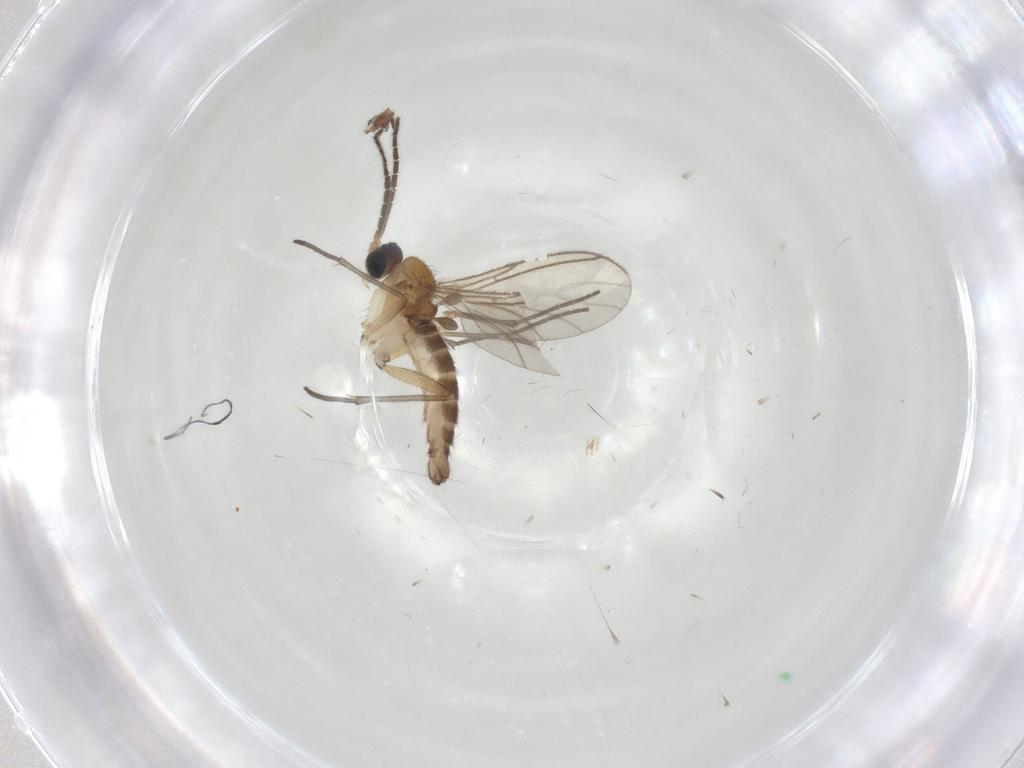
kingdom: Animalia
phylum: Arthropoda
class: Insecta
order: Diptera
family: Sciaridae
